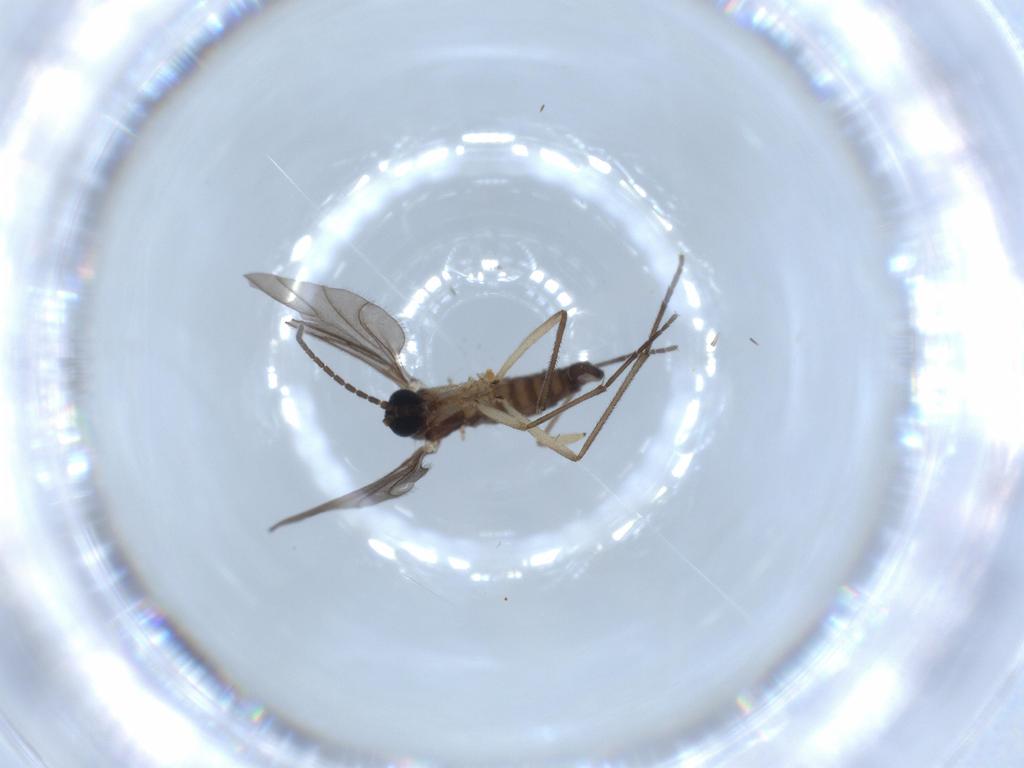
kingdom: Animalia
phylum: Arthropoda
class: Insecta
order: Diptera
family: Sciaridae
